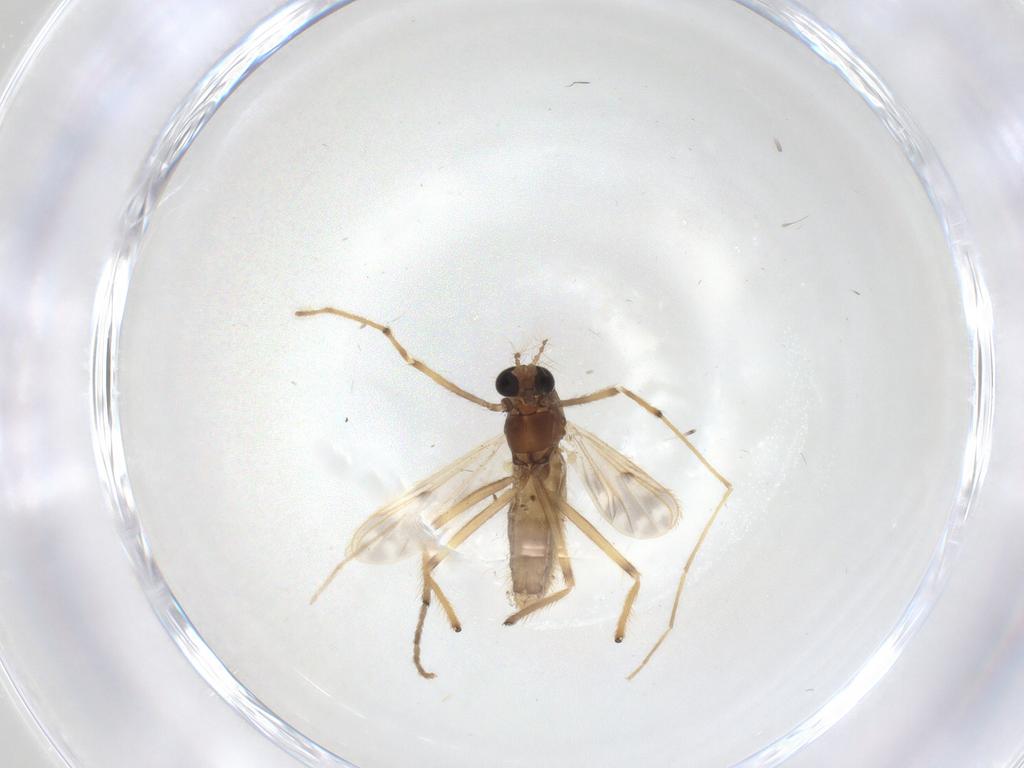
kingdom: Animalia
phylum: Arthropoda
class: Insecta
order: Diptera
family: Chironomidae
